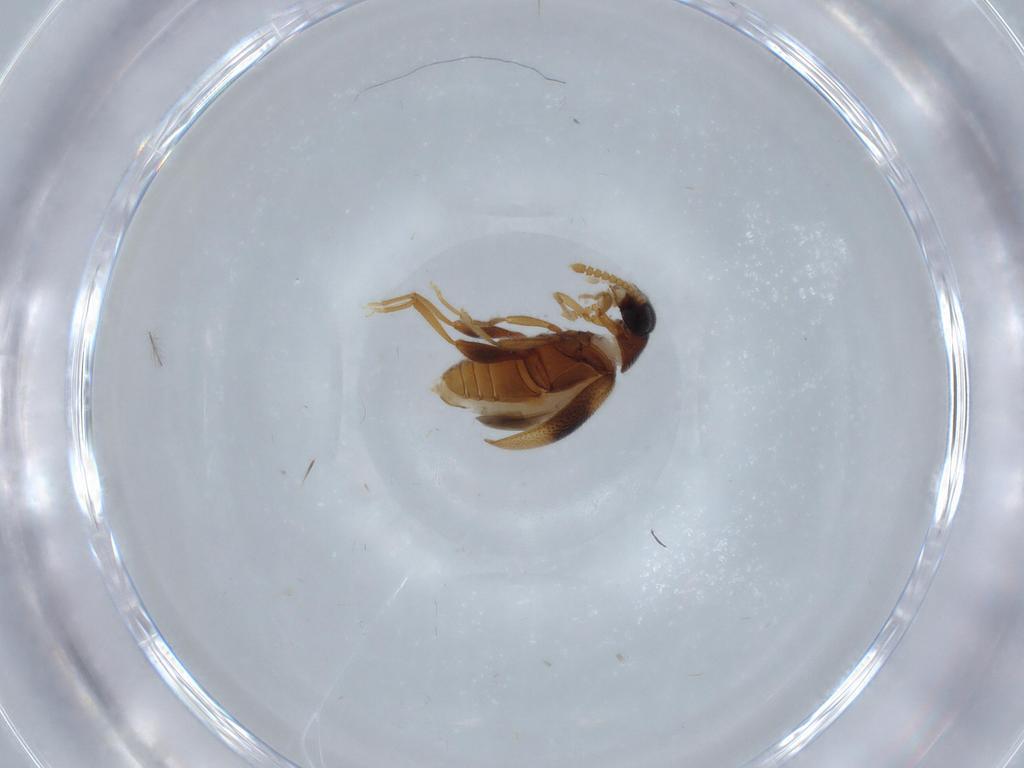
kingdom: Animalia
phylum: Arthropoda
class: Insecta
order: Coleoptera
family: Aderidae
